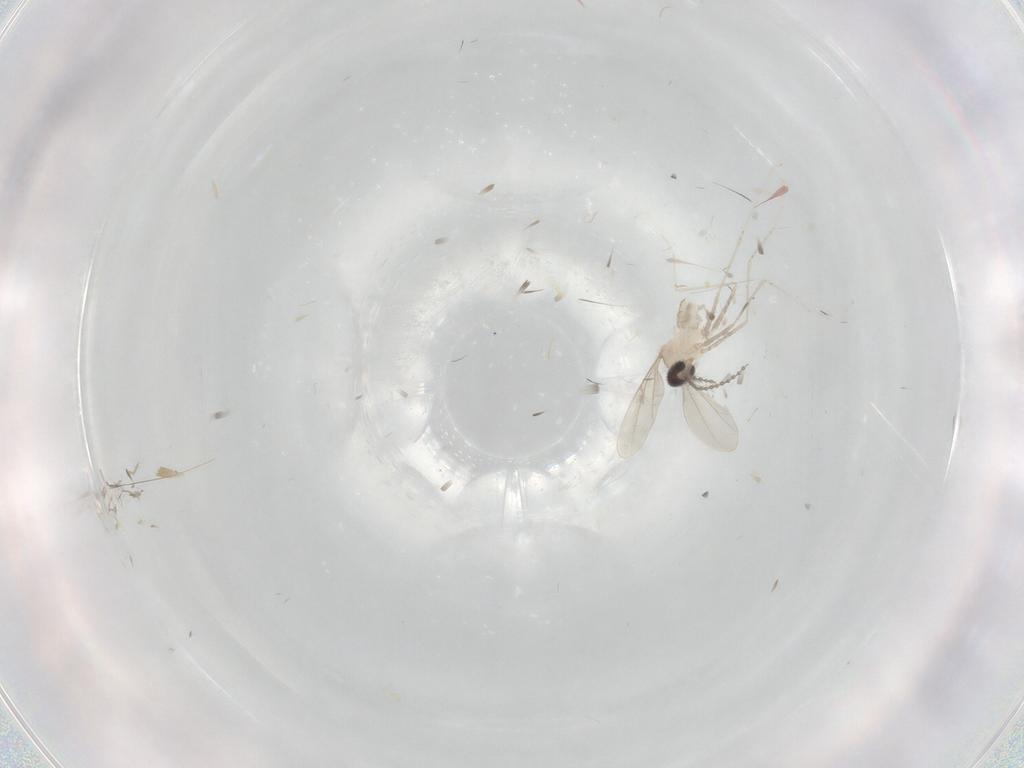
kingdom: Animalia
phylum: Arthropoda
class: Insecta
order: Diptera
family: Cecidomyiidae
